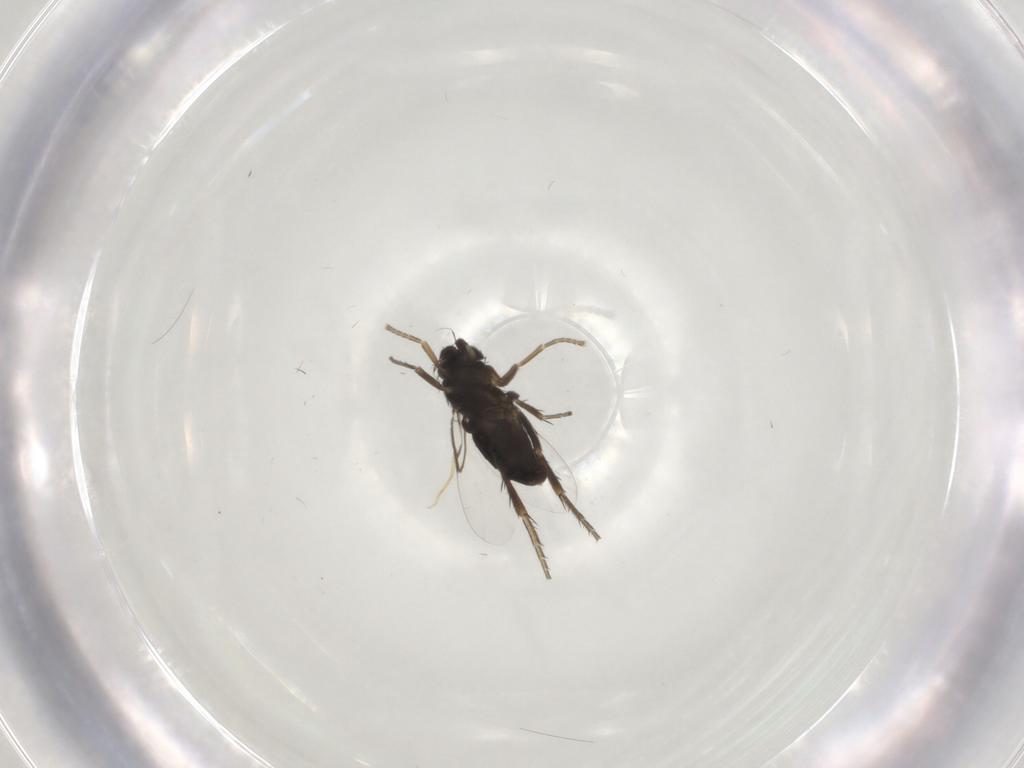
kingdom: Animalia
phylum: Arthropoda
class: Insecta
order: Diptera
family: Phoridae
